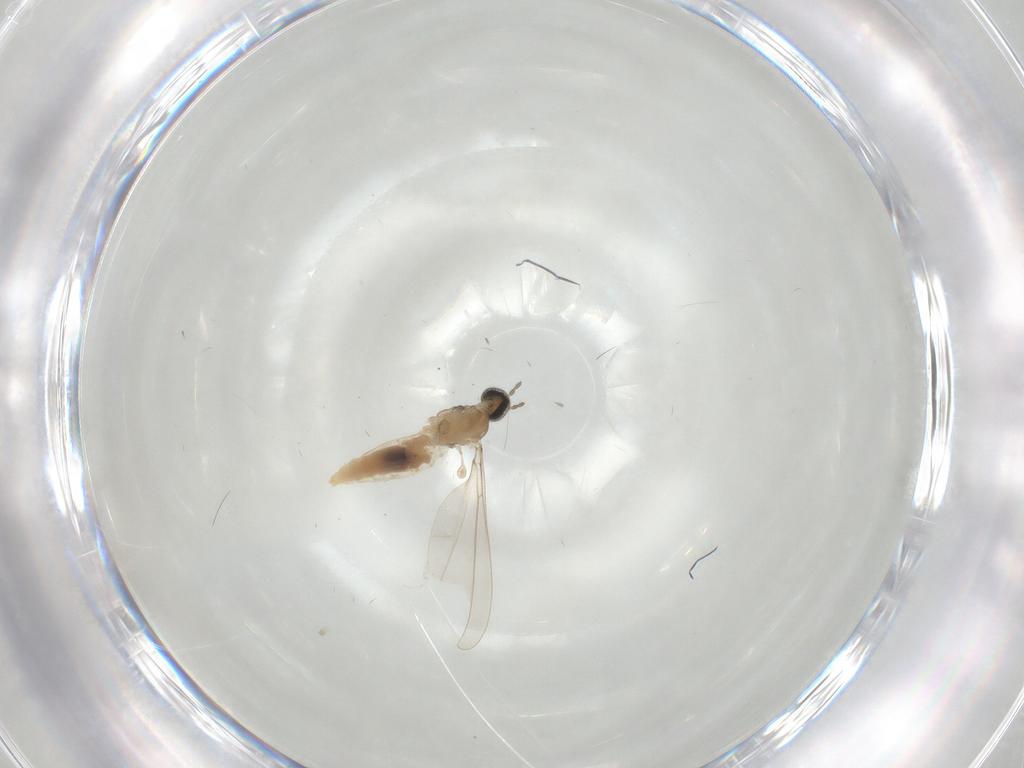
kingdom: Animalia
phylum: Arthropoda
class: Insecta
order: Diptera
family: Cecidomyiidae
